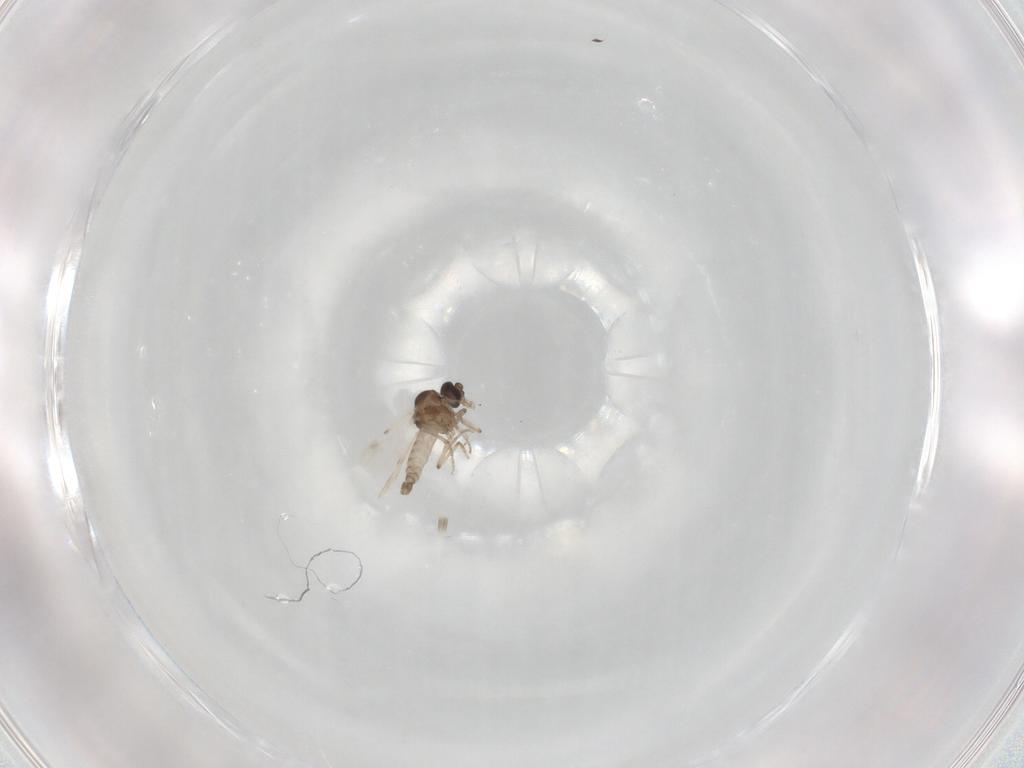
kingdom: Animalia
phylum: Arthropoda
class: Insecta
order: Diptera
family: Ceratopogonidae
